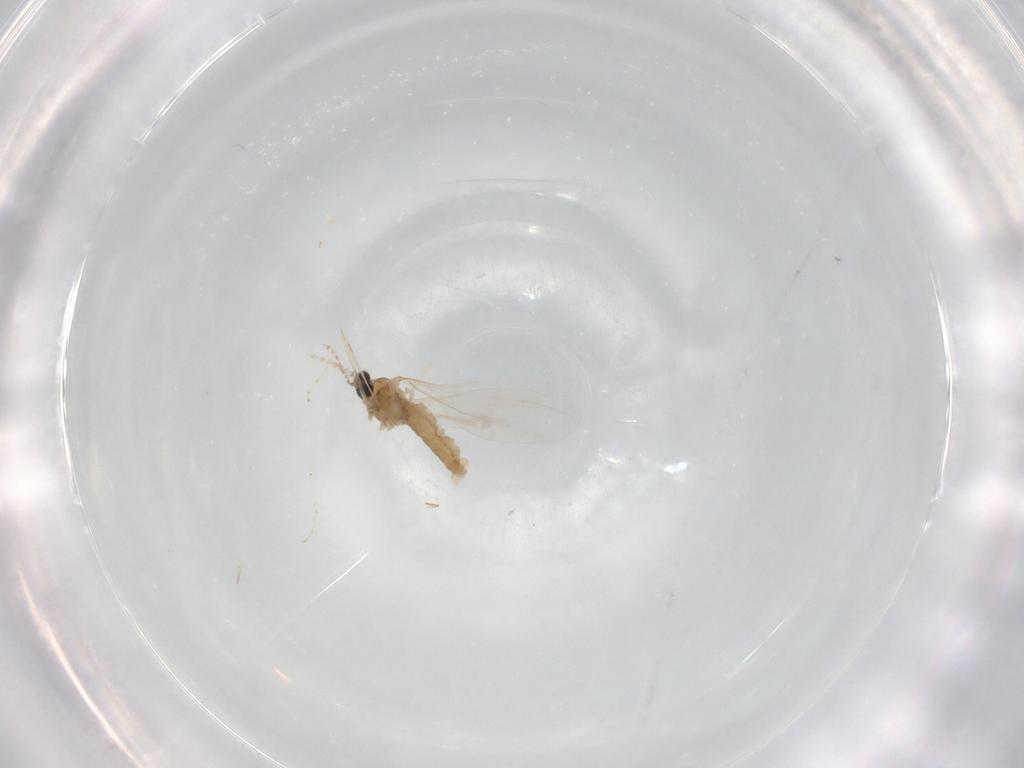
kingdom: Animalia
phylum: Arthropoda
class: Insecta
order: Diptera
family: Cecidomyiidae
